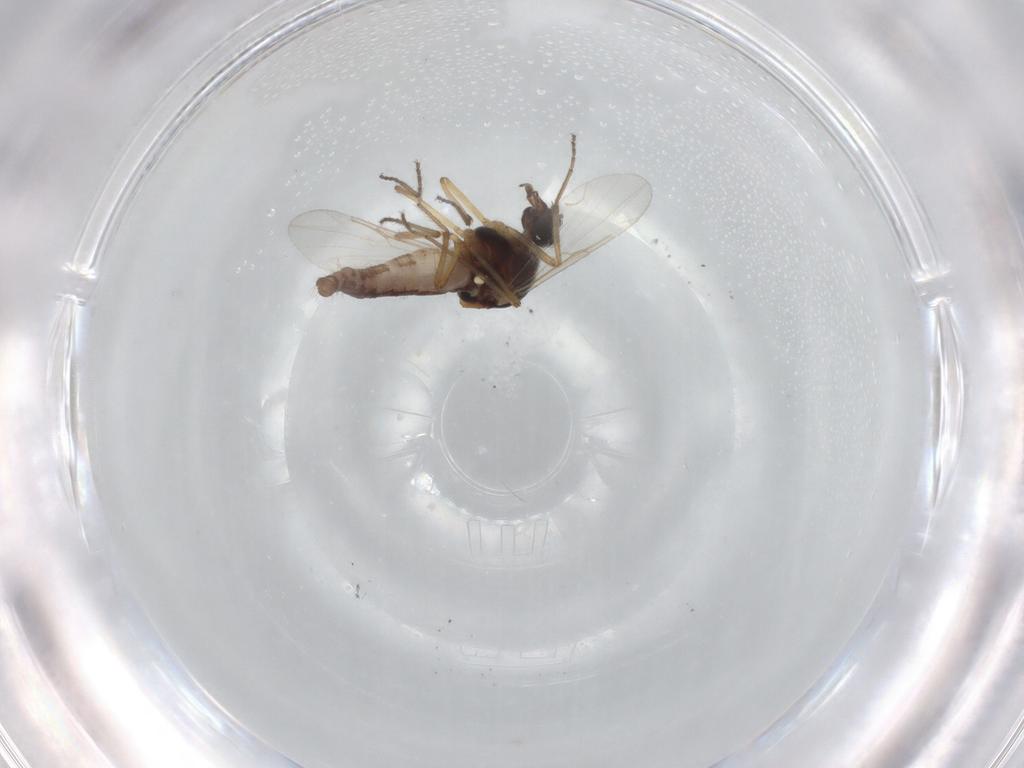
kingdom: Animalia
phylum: Arthropoda
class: Insecta
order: Diptera
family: Ceratopogonidae
